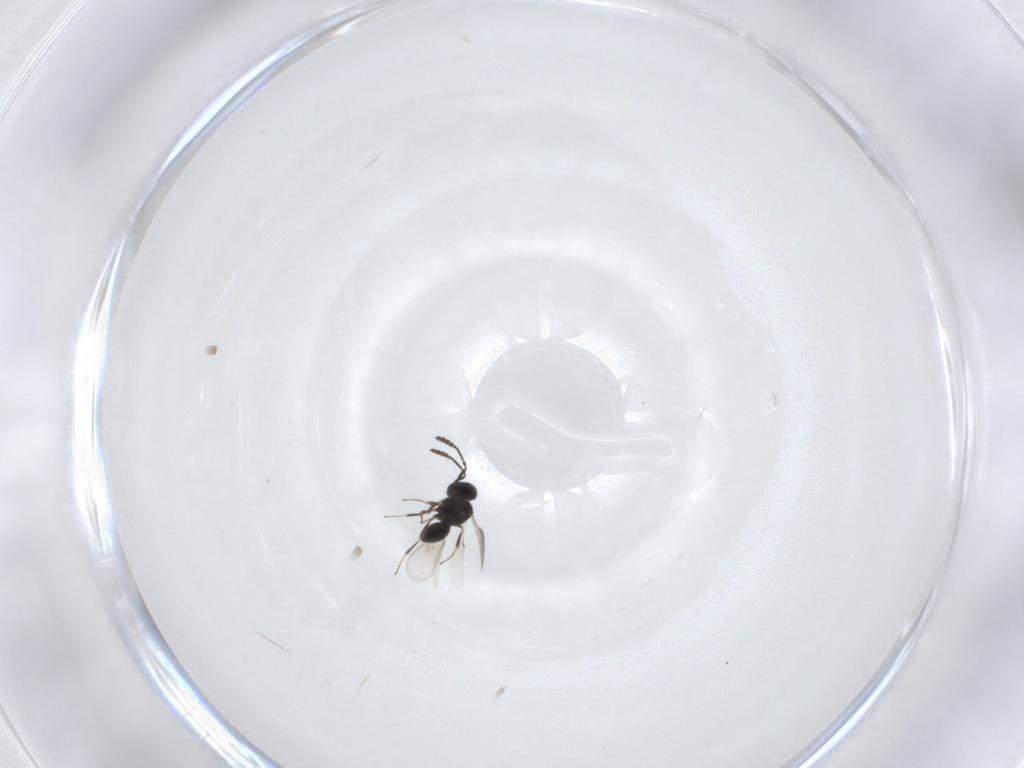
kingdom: Animalia
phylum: Arthropoda
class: Insecta
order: Hymenoptera
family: Scelionidae
